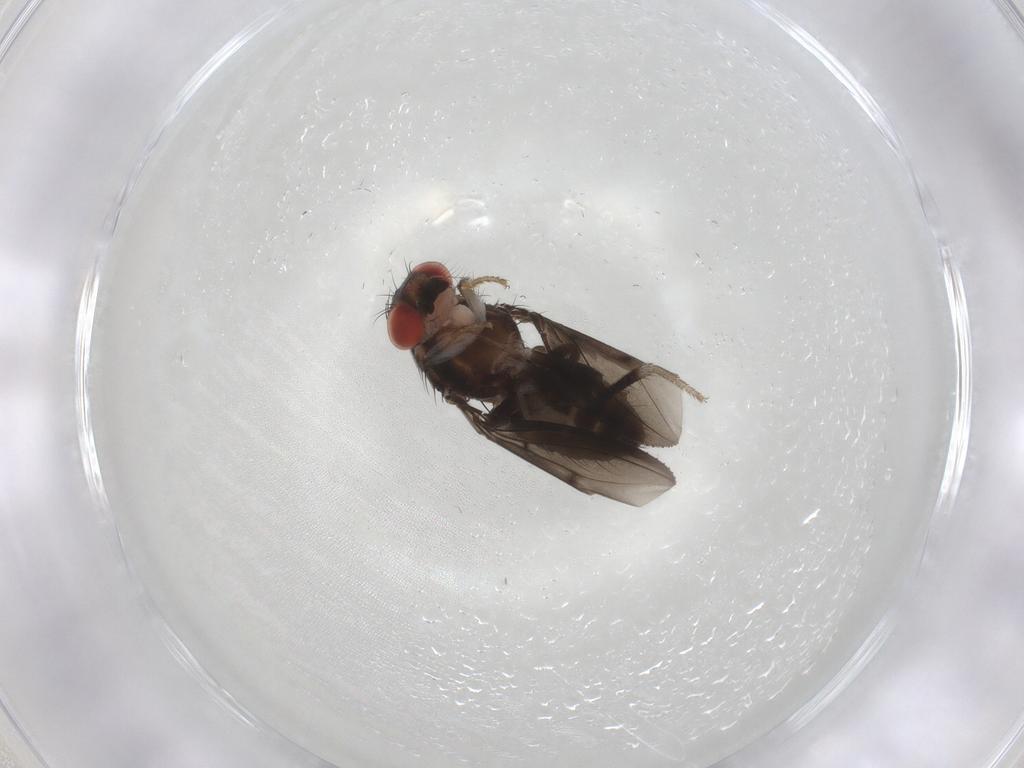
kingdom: Animalia
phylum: Arthropoda
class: Insecta
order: Diptera
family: Drosophilidae
